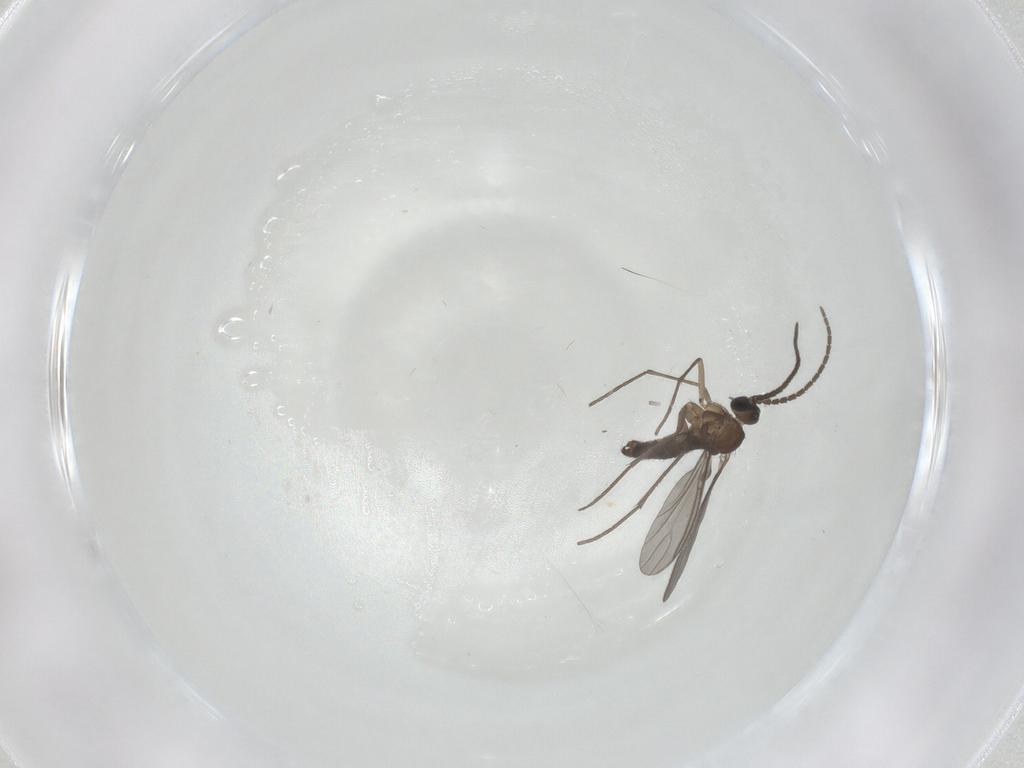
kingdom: Animalia
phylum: Arthropoda
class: Insecta
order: Diptera
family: Sciaridae
